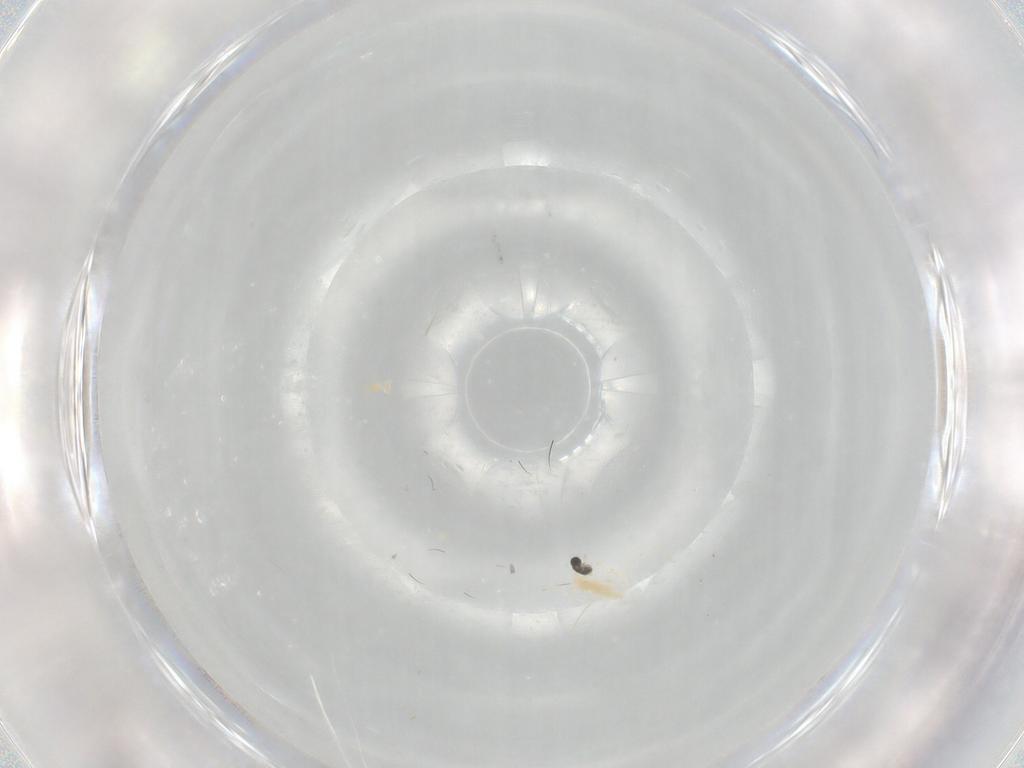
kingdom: Animalia
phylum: Arthropoda
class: Insecta
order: Diptera
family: Cecidomyiidae
